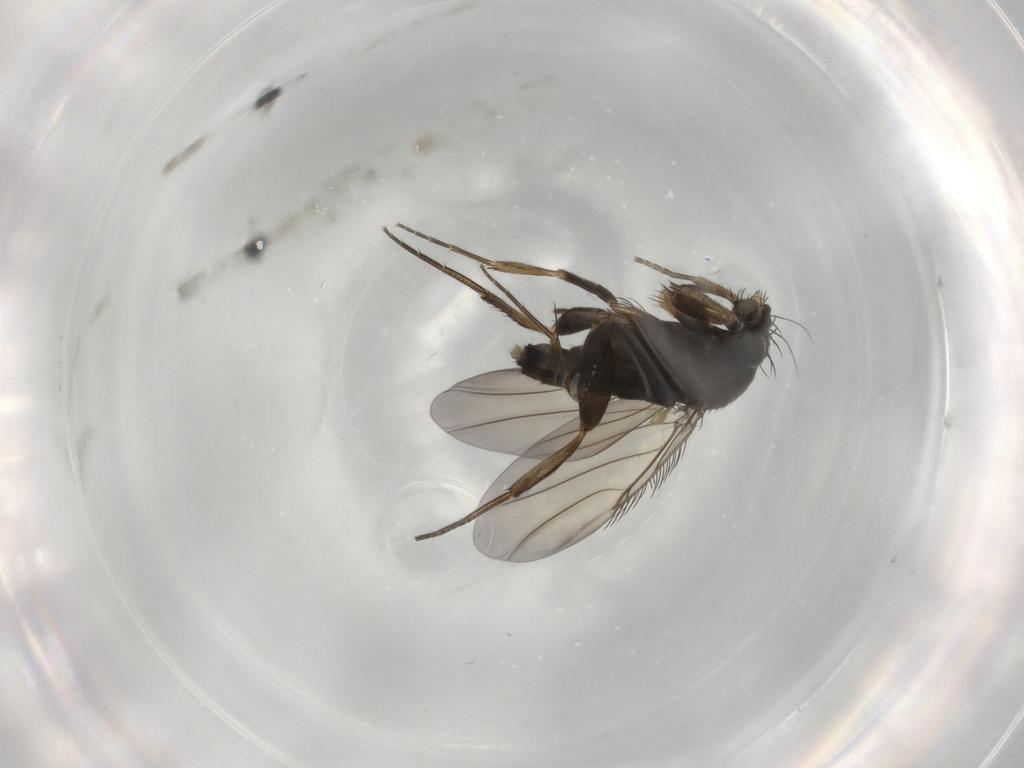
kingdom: Animalia
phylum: Arthropoda
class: Insecta
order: Diptera
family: Phoridae
